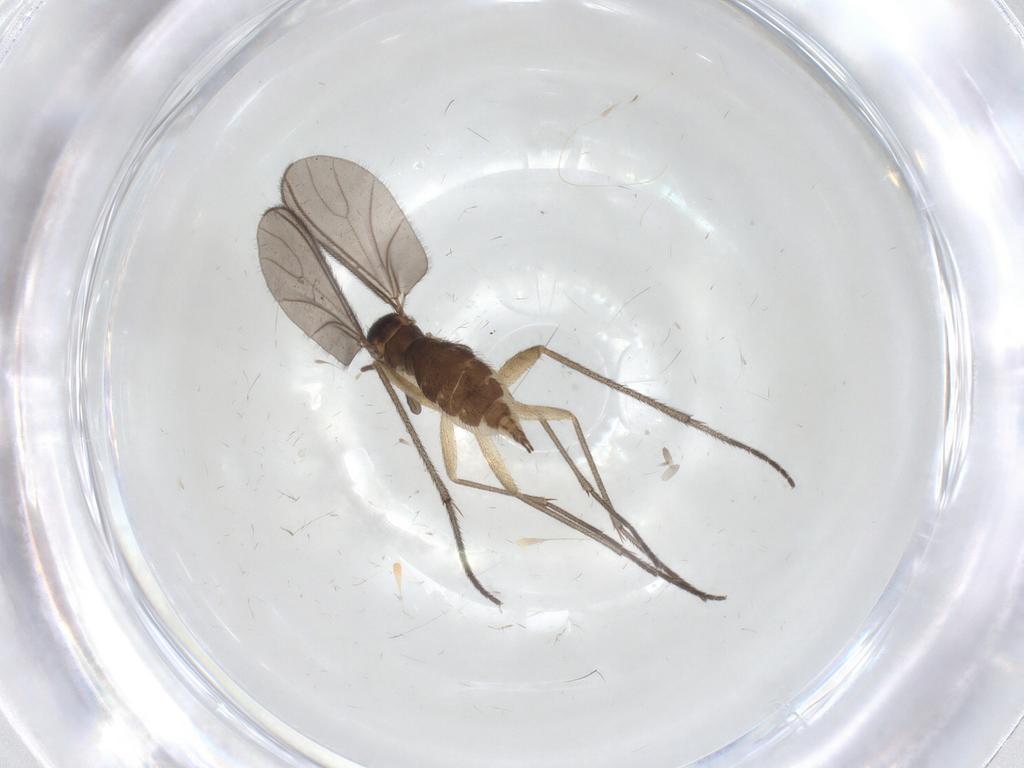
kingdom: Animalia
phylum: Arthropoda
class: Insecta
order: Diptera
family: Sciaridae
